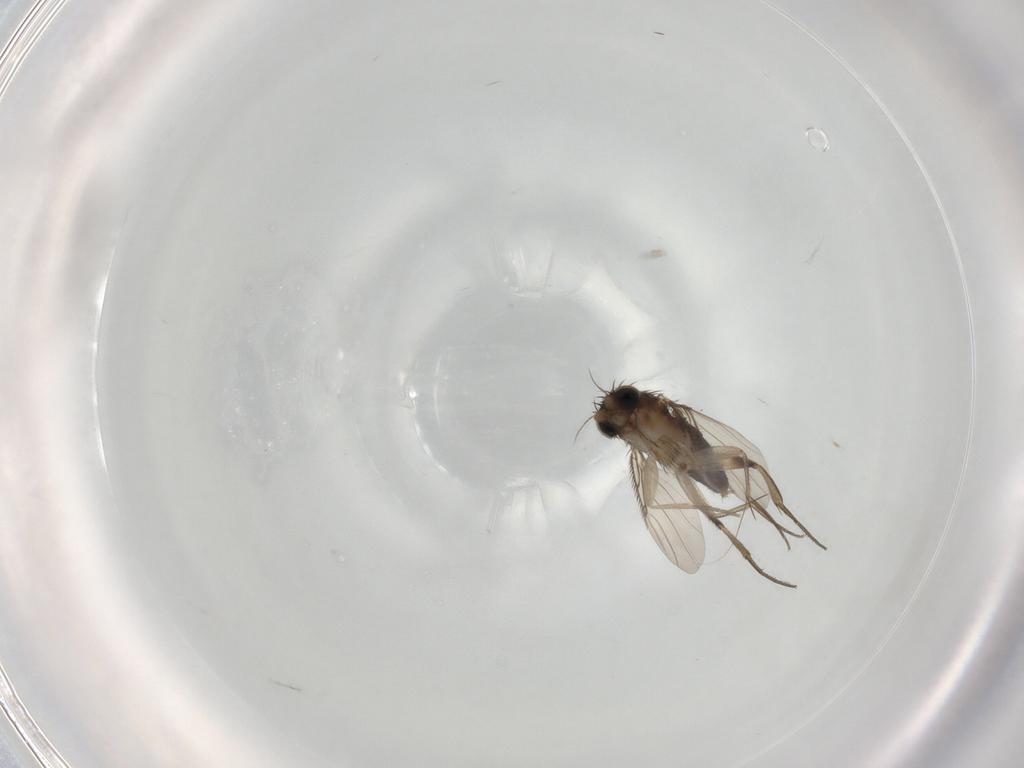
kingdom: Animalia
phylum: Arthropoda
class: Insecta
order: Diptera
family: Phoridae
